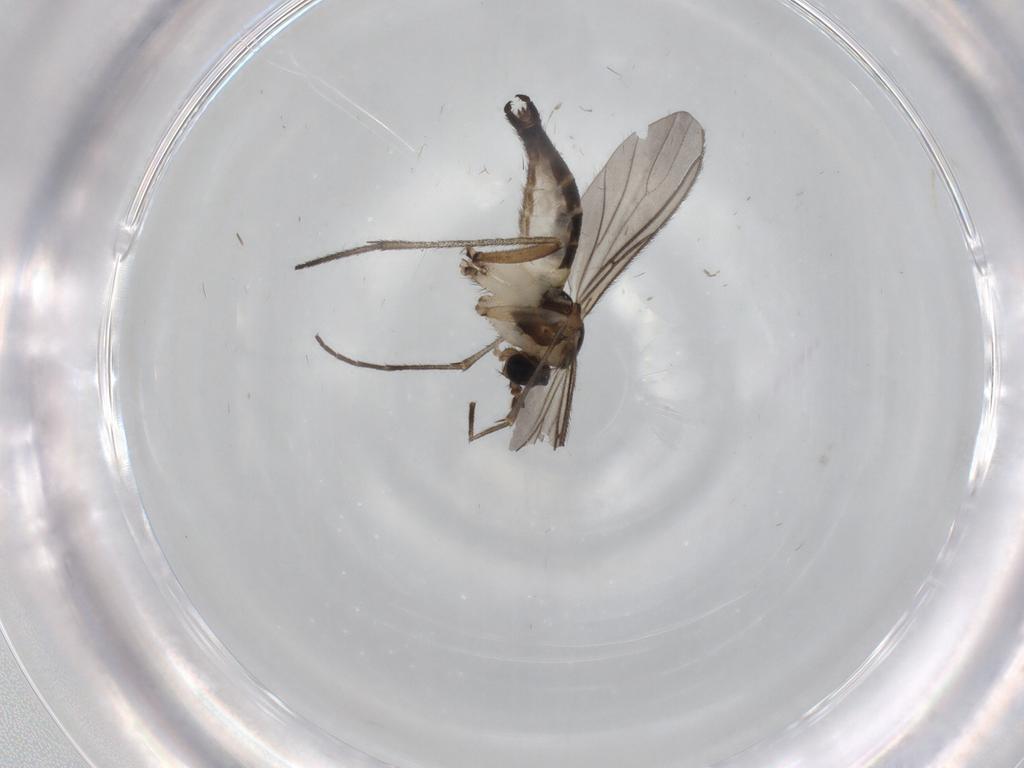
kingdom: Animalia
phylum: Arthropoda
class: Insecta
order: Diptera
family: Sciaridae
